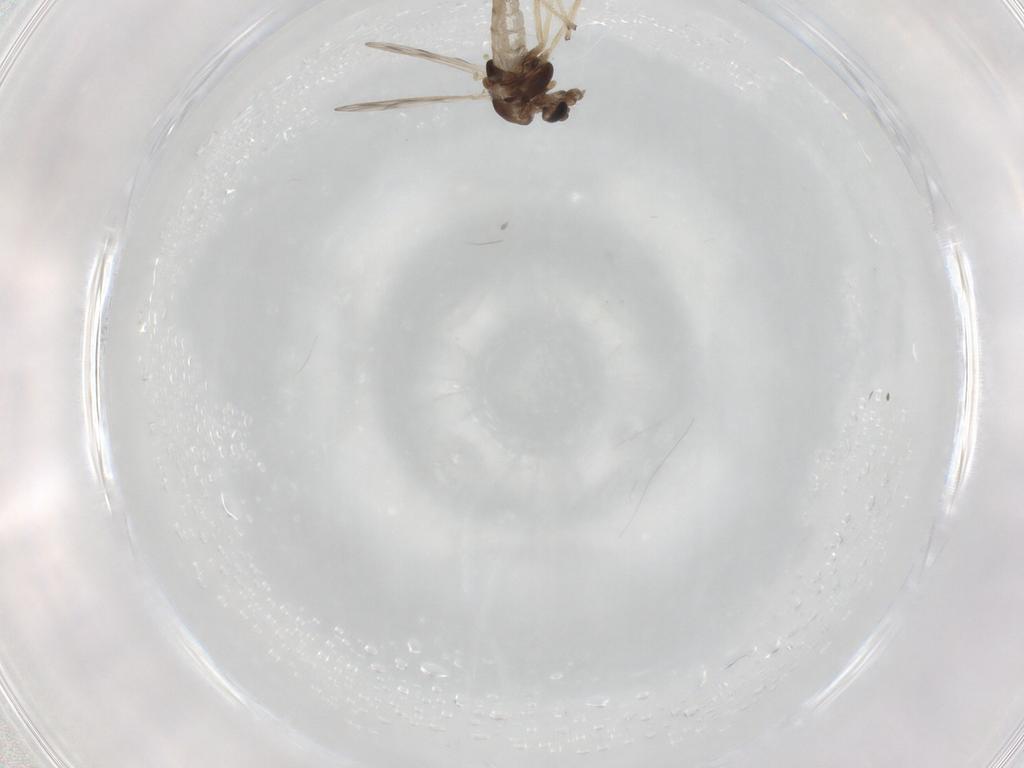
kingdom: Animalia
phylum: Arthropoda
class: Insecta
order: Diptera
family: Chironomidae
